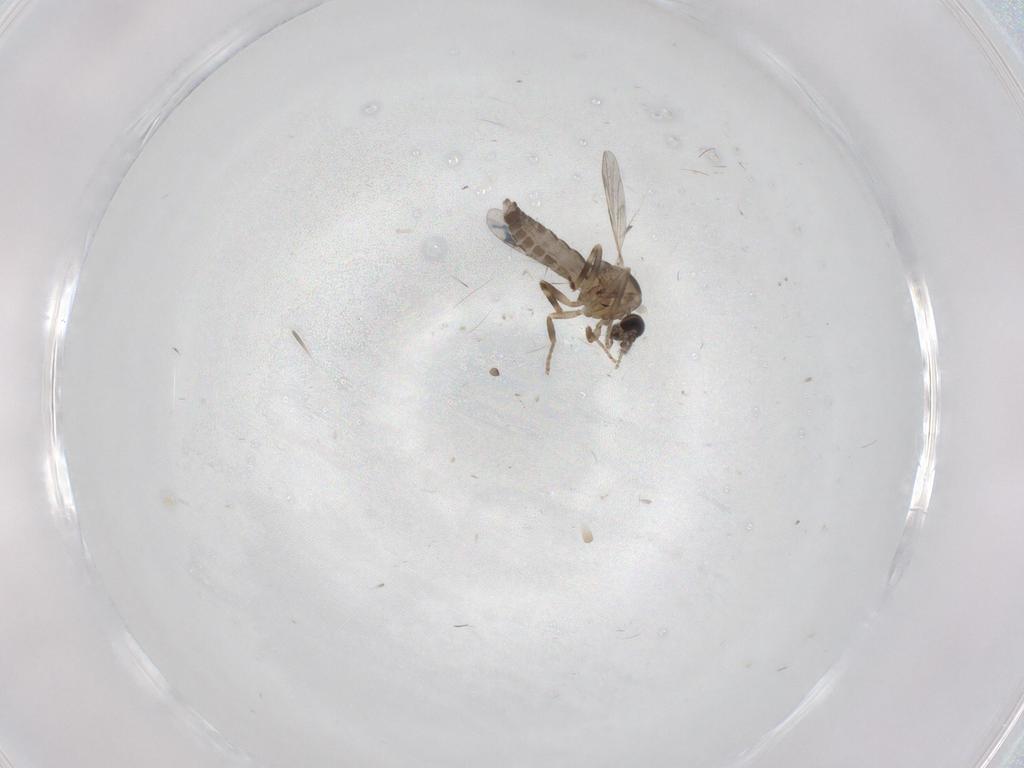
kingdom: Animalia
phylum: Arthropoda
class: Insecta
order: Diptera
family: Ceratopogonidae
